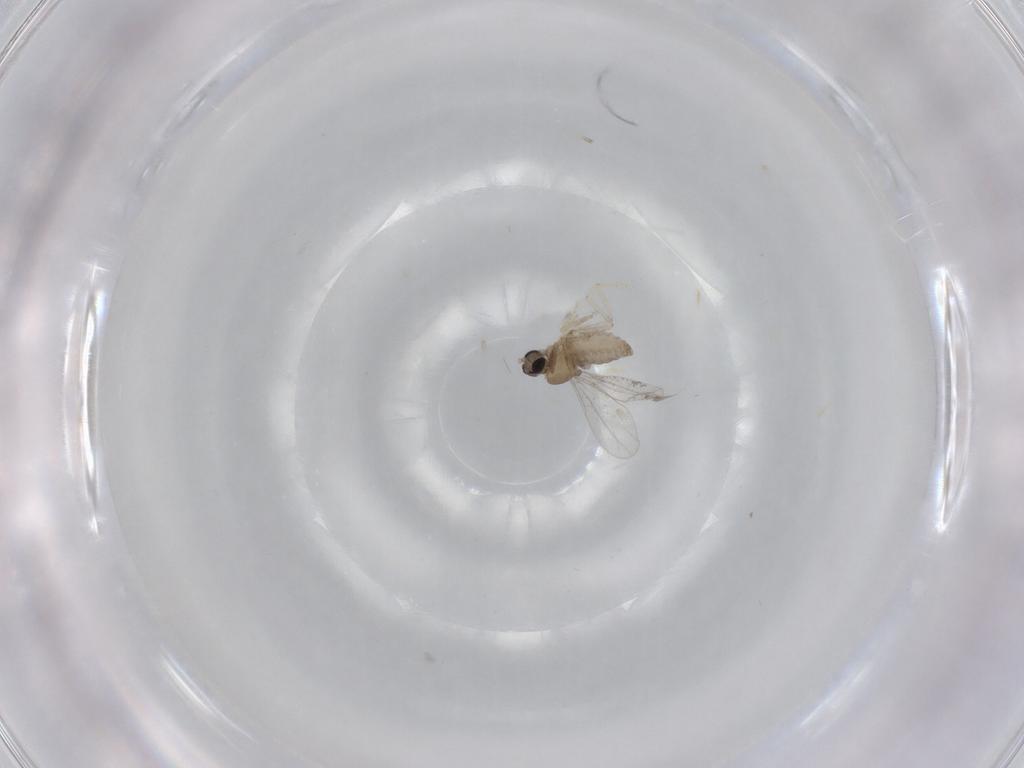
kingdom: Animalia
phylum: Arthropoda
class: Insecta
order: Diptera
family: Cecidomyiidae
